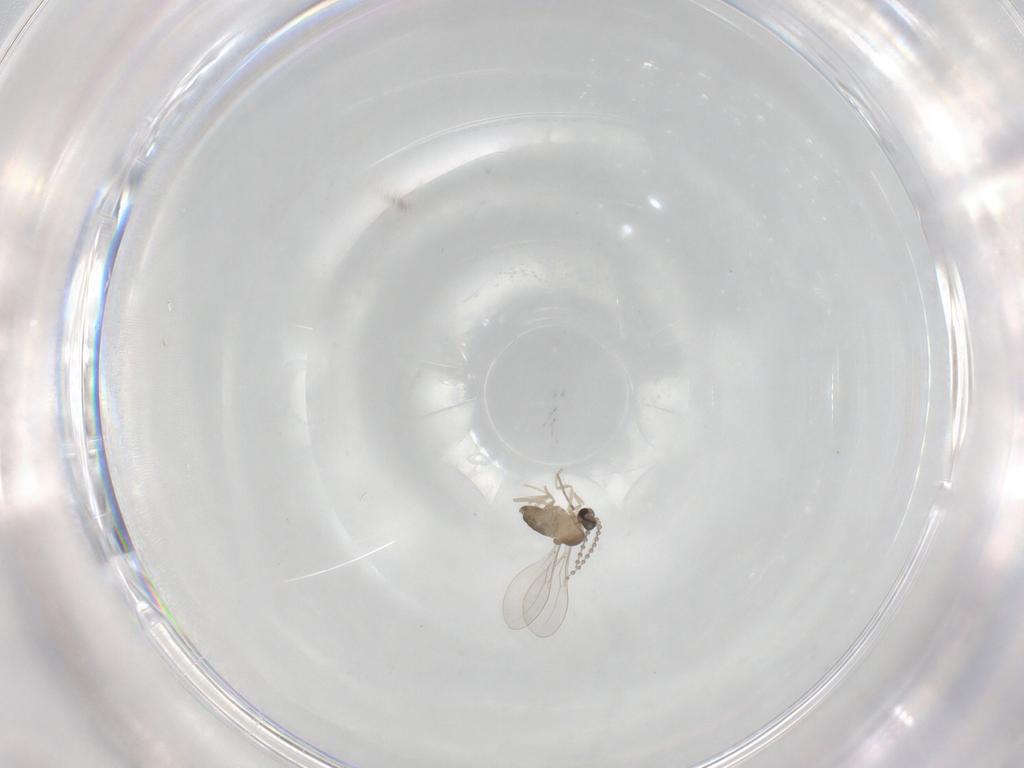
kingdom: Animalia
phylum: Arthropoda
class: Insecta
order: Diptera
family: Cecidomyiidae
